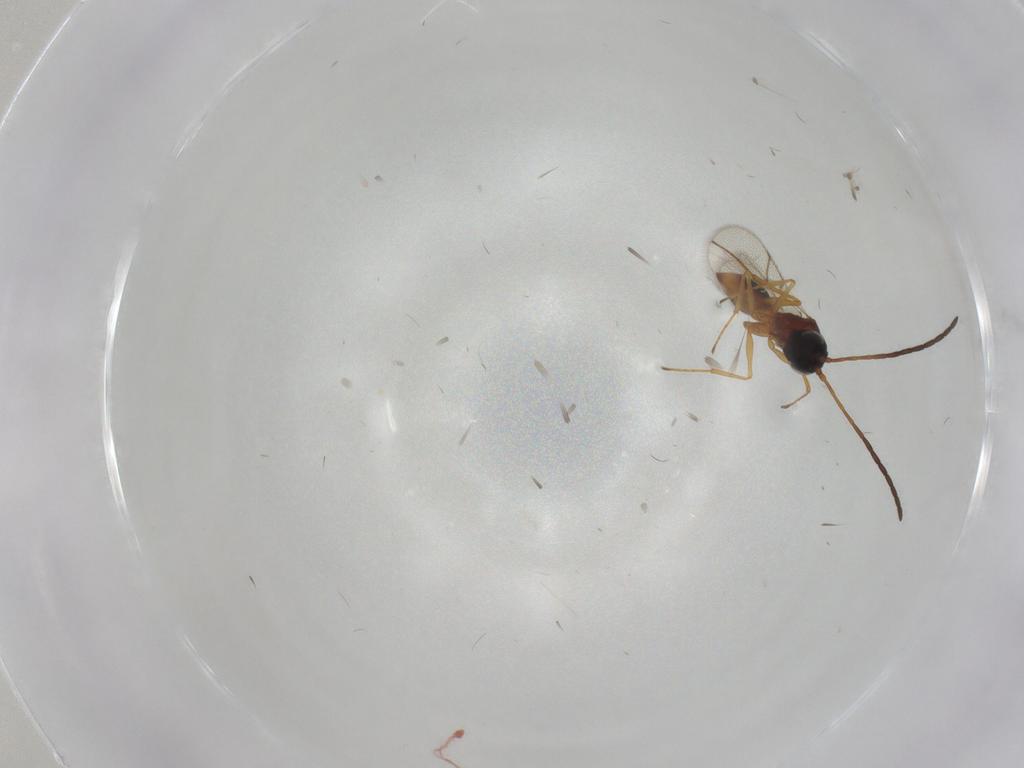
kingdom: Animalia
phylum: Arthropoda
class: Insecta
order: Hymenoptera
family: Figitidae
